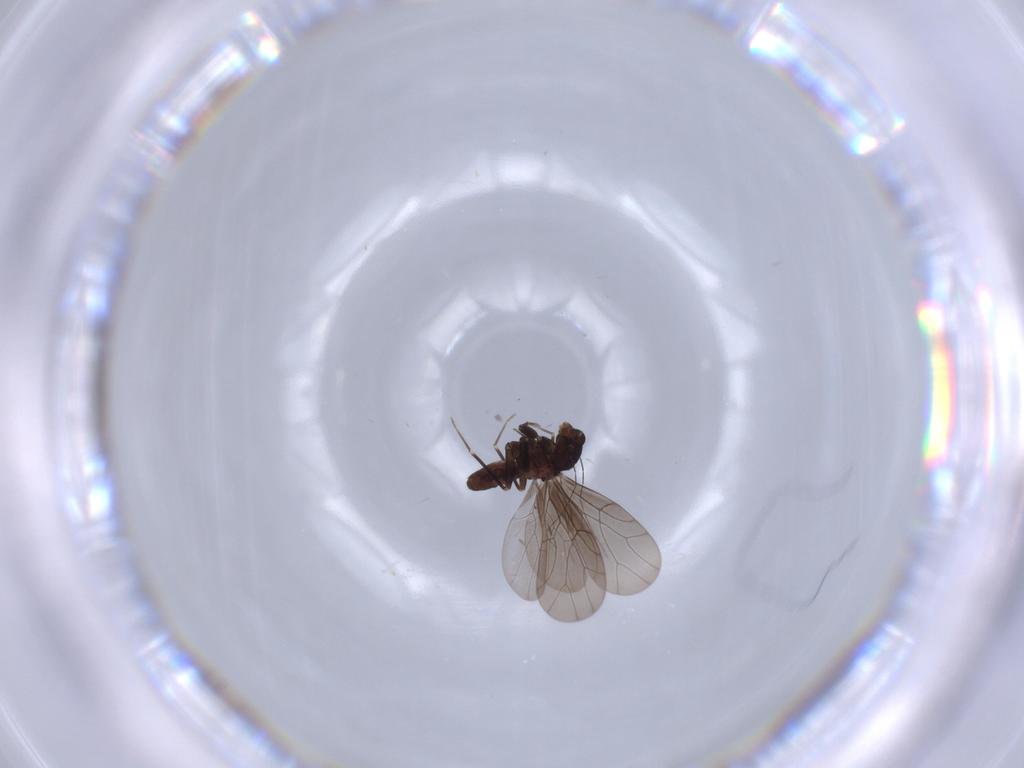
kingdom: Animalia
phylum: Arthropoda
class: Insecta
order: Psocodea
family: Lepidopsocidae
